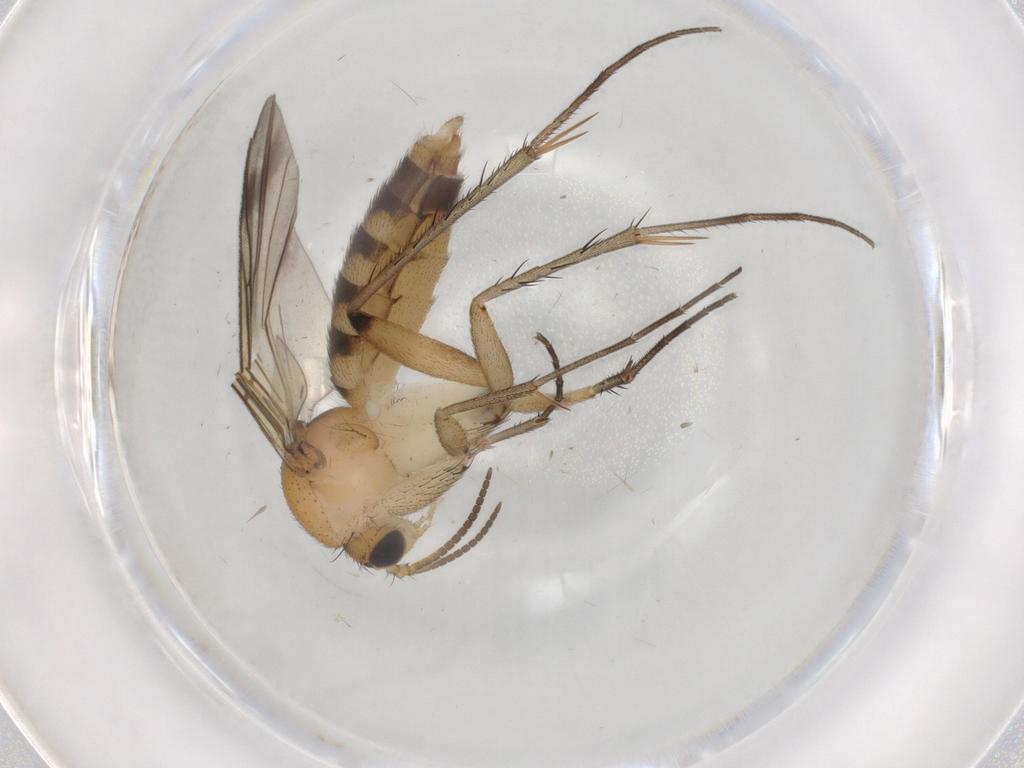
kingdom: Animalia
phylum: Arthropoda
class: Insecta
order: Diptera
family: Mycetophilidae
